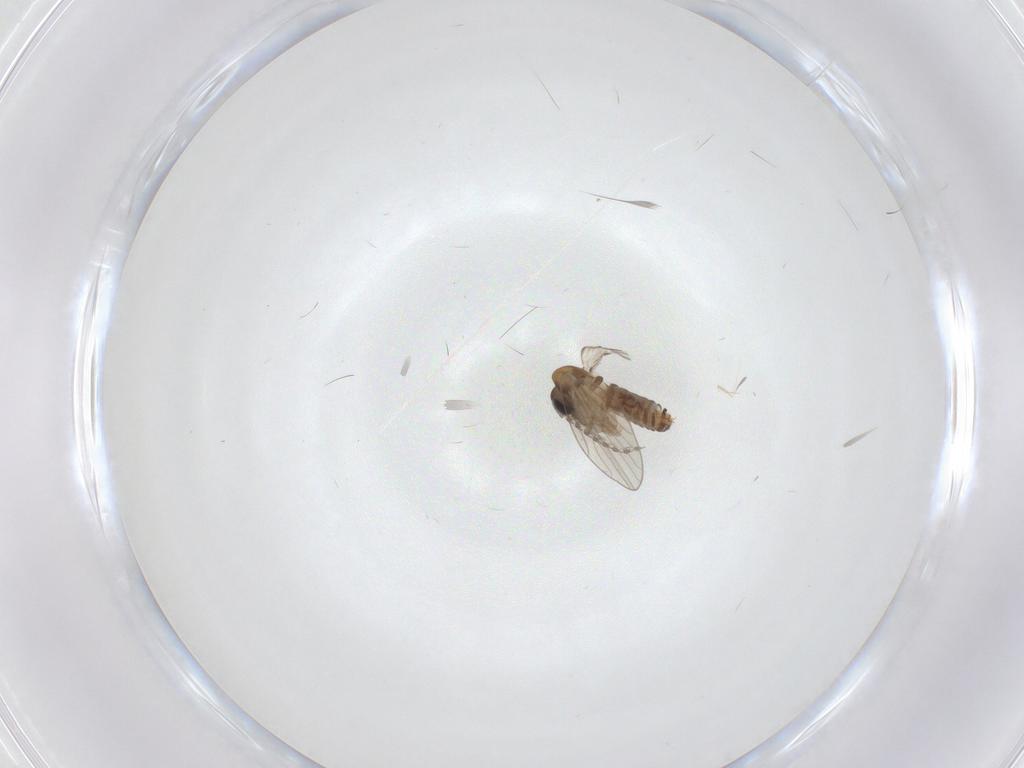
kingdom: Animalia
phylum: Arthropoda
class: Insecta
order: Diptera
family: Psychodidae
